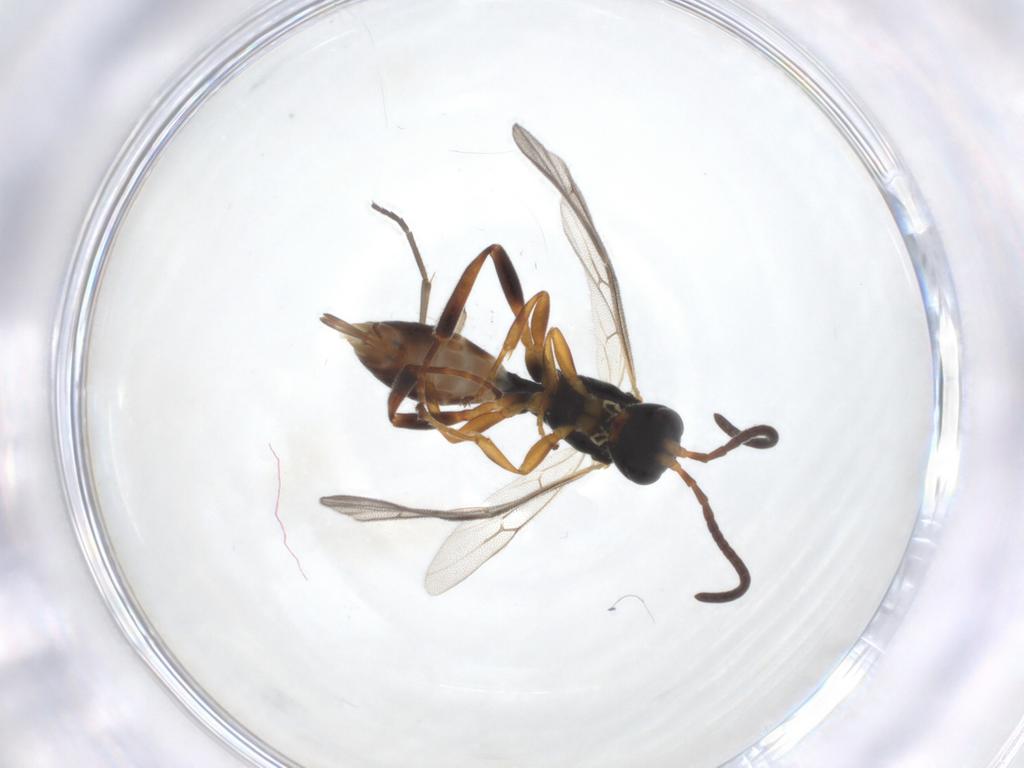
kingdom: Animalia
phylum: Arthropoda
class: Insecta
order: Hymenoptera
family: Ichneumonidae
